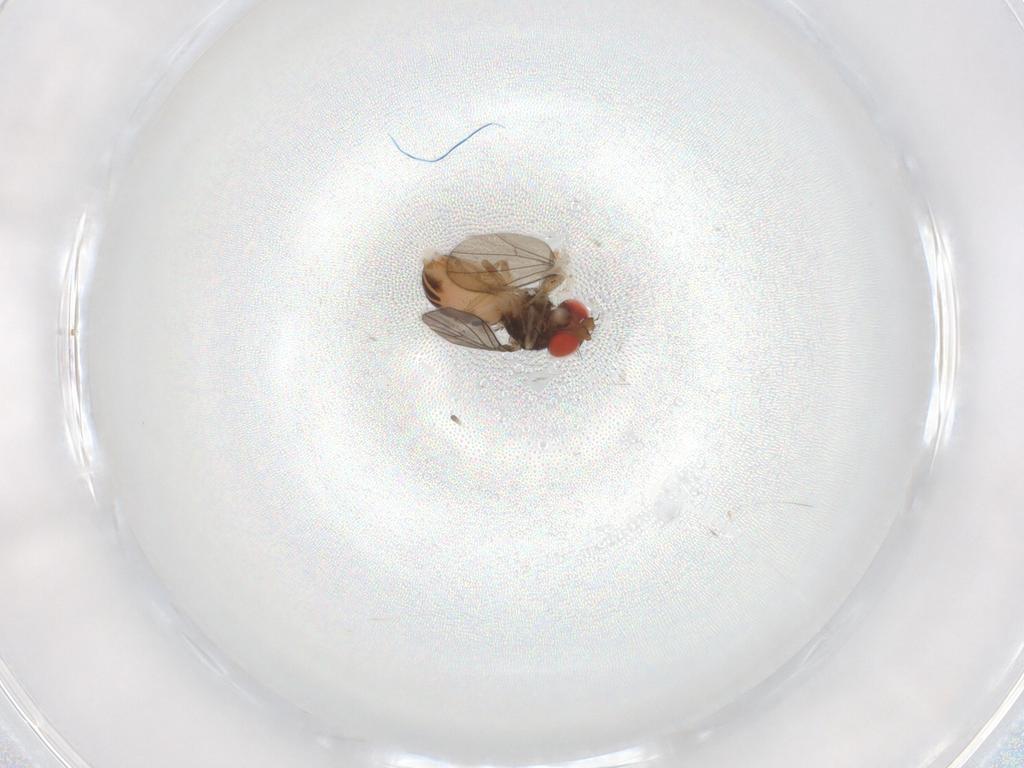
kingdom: Animalia
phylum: Arthropoda
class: Insecta
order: Diptera
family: Drosophilidae
